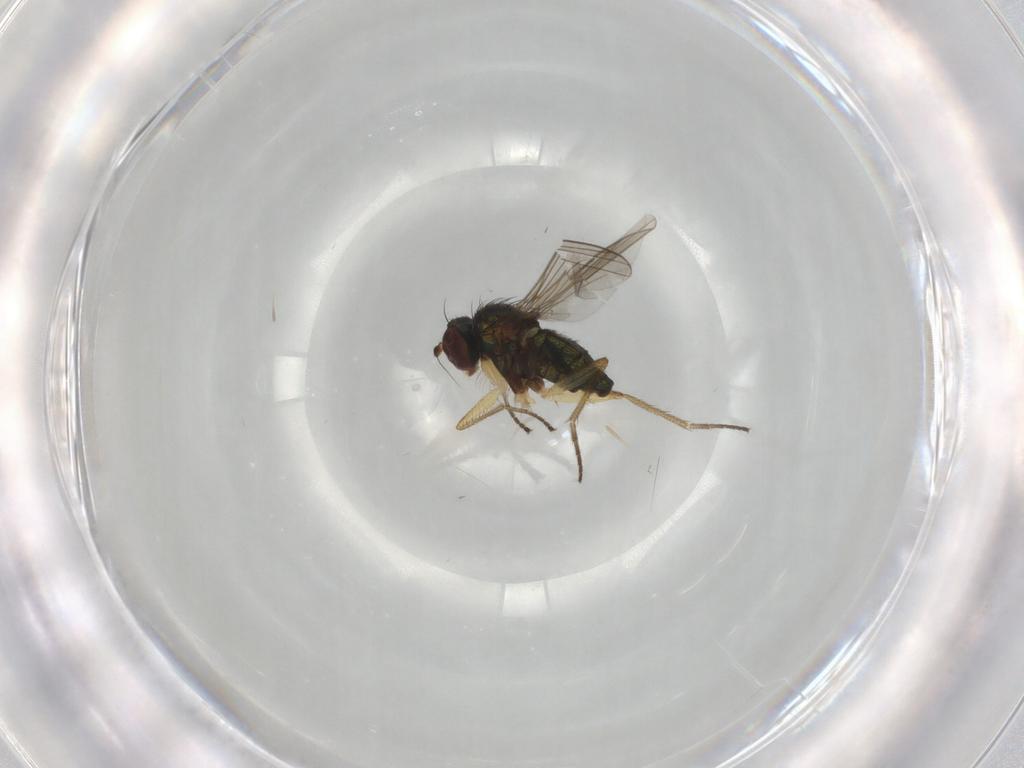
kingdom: Animalia
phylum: Arthropoda
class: Insecta
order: Diptera
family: Dolichopodidae
